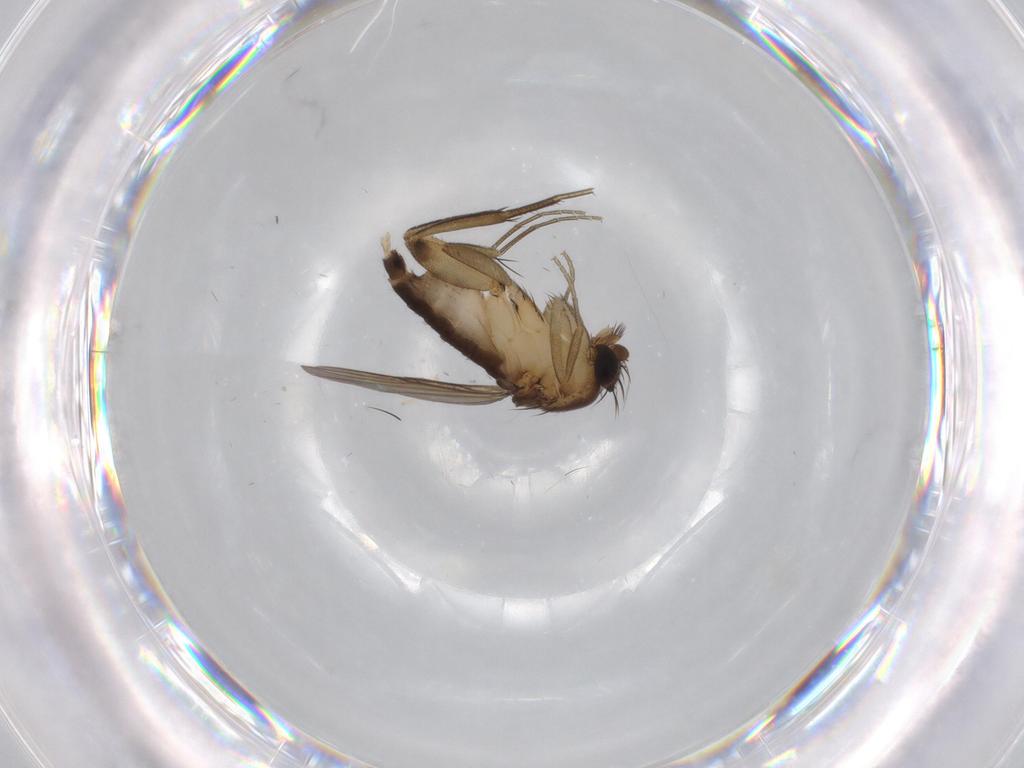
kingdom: Animalia
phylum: Arthropoda
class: Insecta
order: Diptera
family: Phoridae
